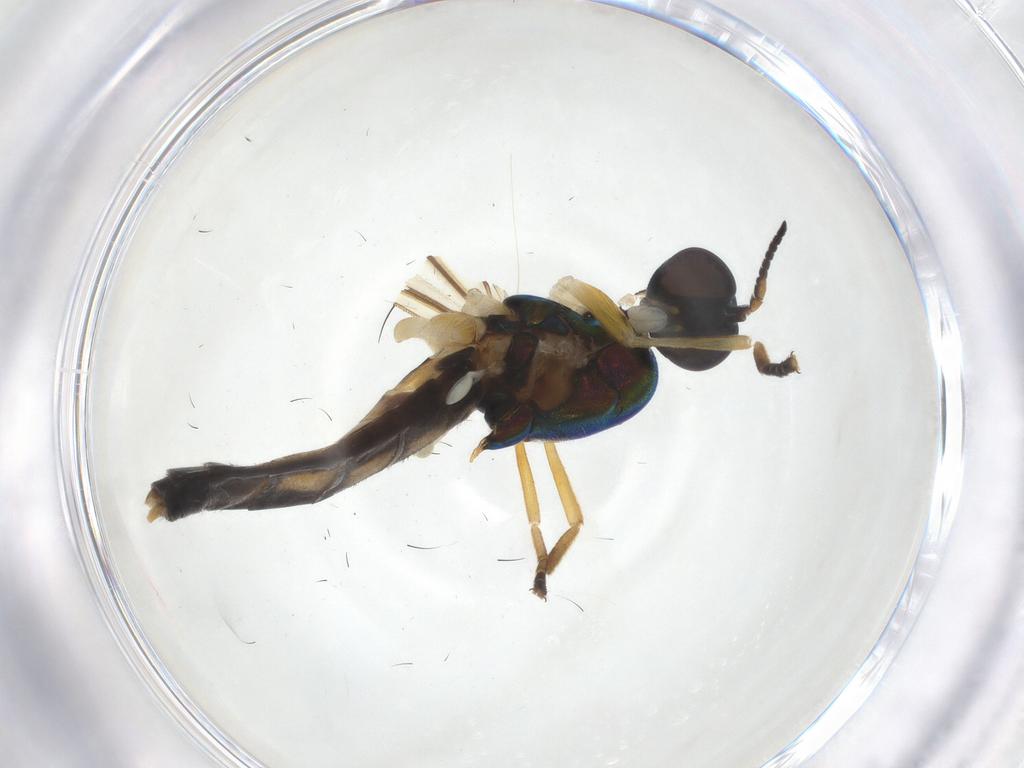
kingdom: Animalia
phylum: Arthropoda
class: Insecta
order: Diptera
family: Stratiomyidae
